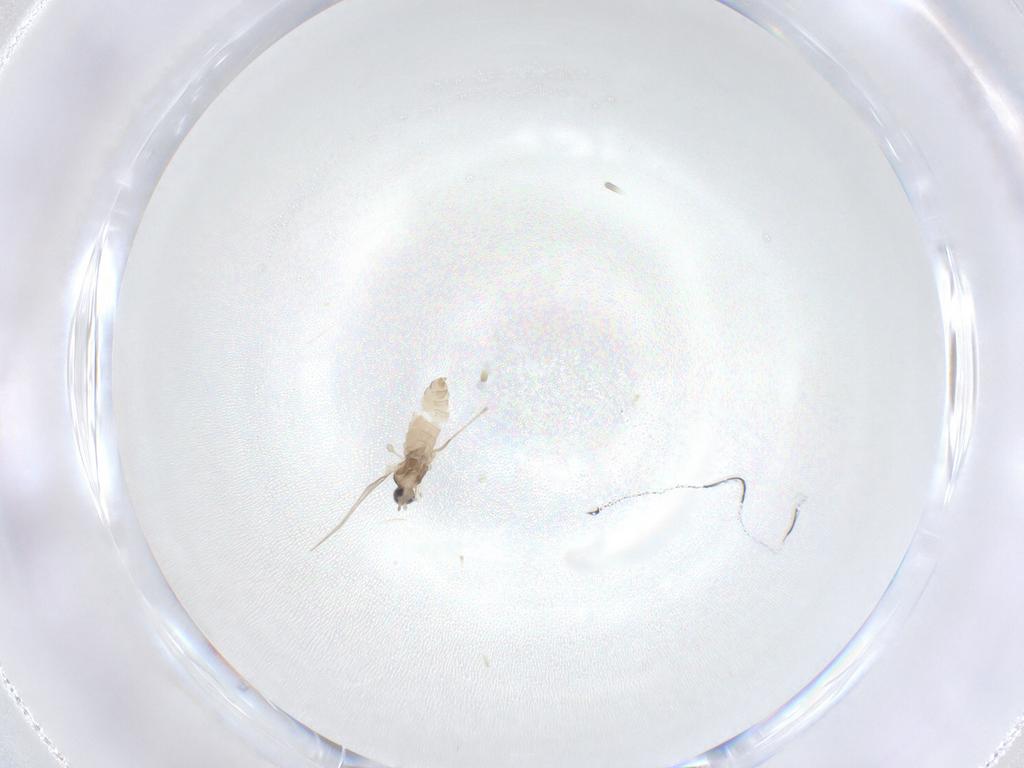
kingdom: Animalia
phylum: Arthropoda
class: Insecta
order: Diptera
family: Cecidomyiidae
